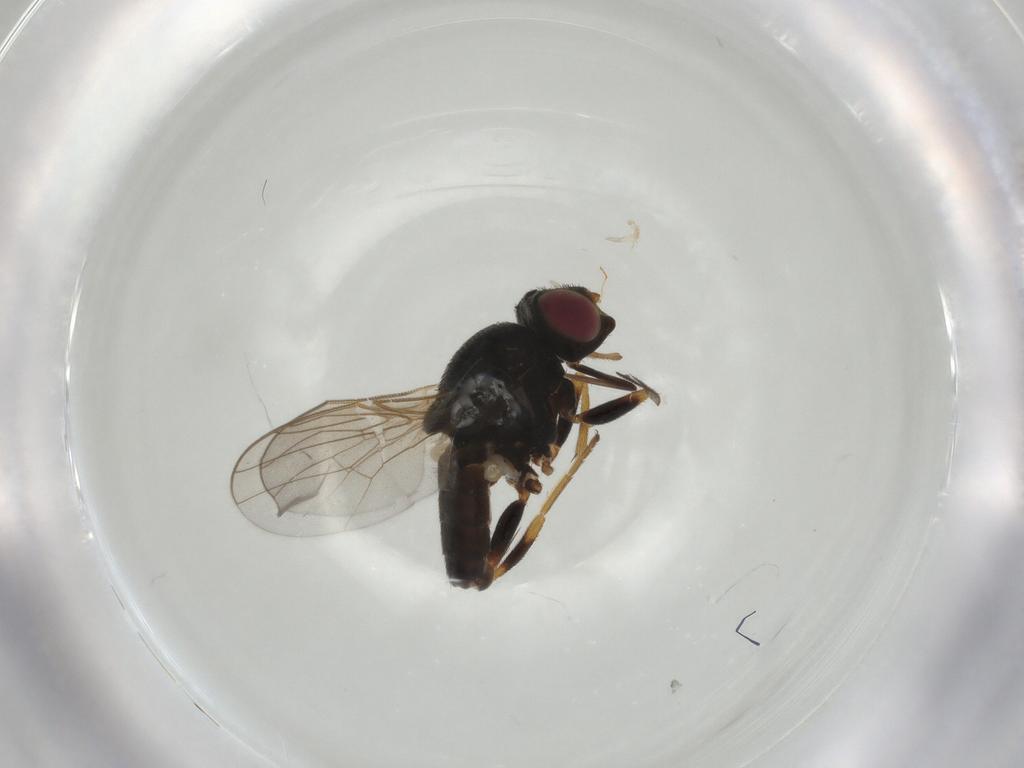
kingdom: Animalia
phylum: Arthropoda
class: Insecta
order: Diptera
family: Chloropidae
